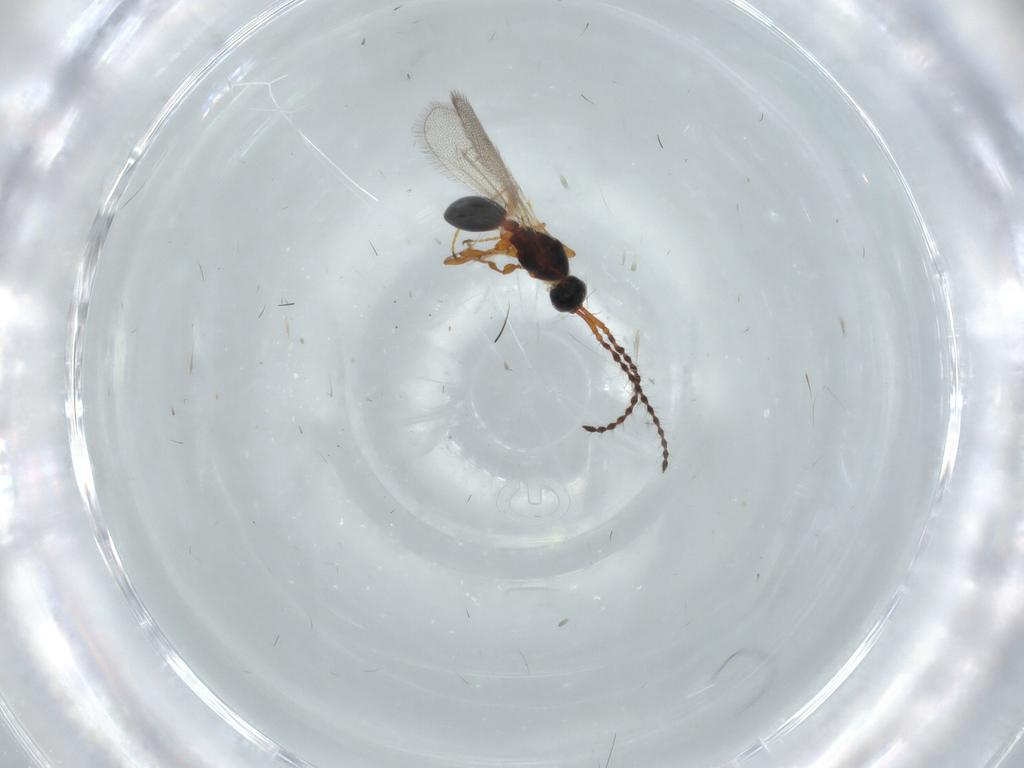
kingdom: Animalia
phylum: Arthropoda
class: Insecta
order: Hymenoptera
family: Diapriidae
